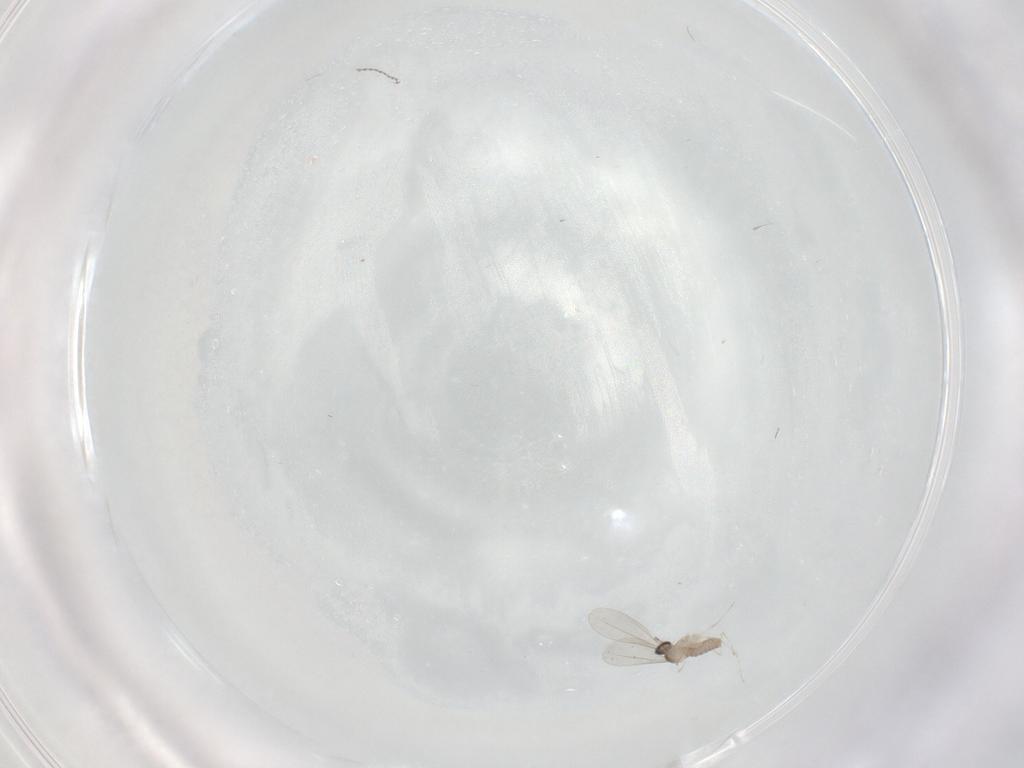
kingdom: Animalia
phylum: Arthropoda
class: Insecta
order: Diptera
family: Cecidomyiidae
